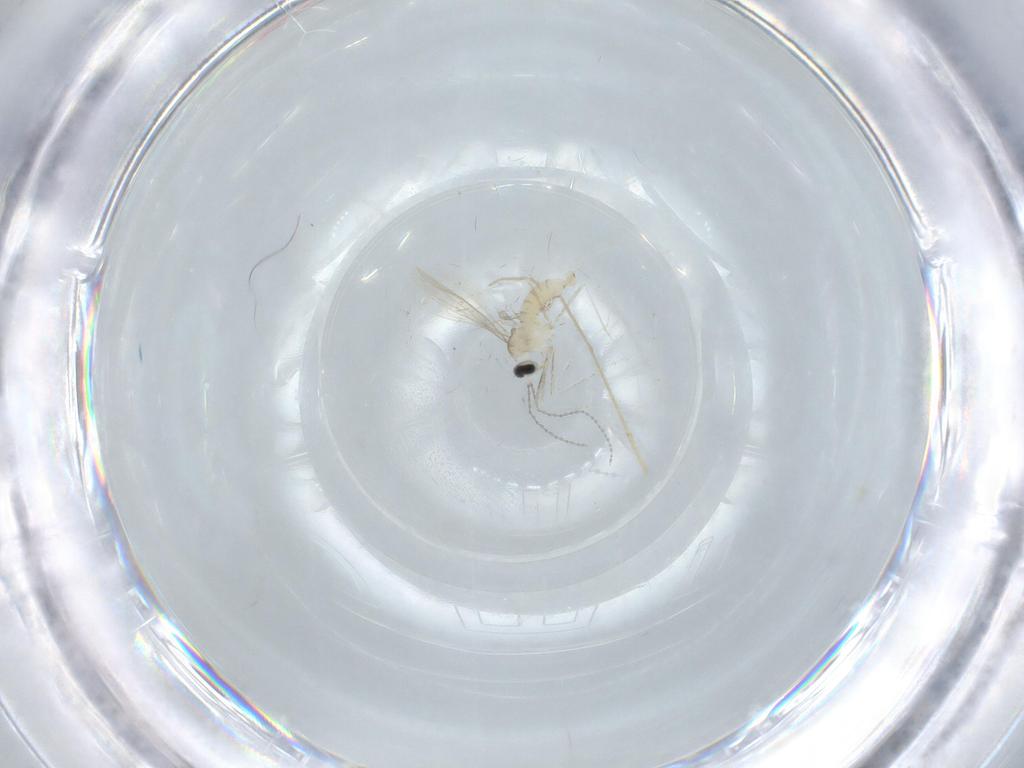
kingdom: Animalia
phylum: Arthropoda
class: Insecta
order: Diptera
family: Cecidomyiidae
